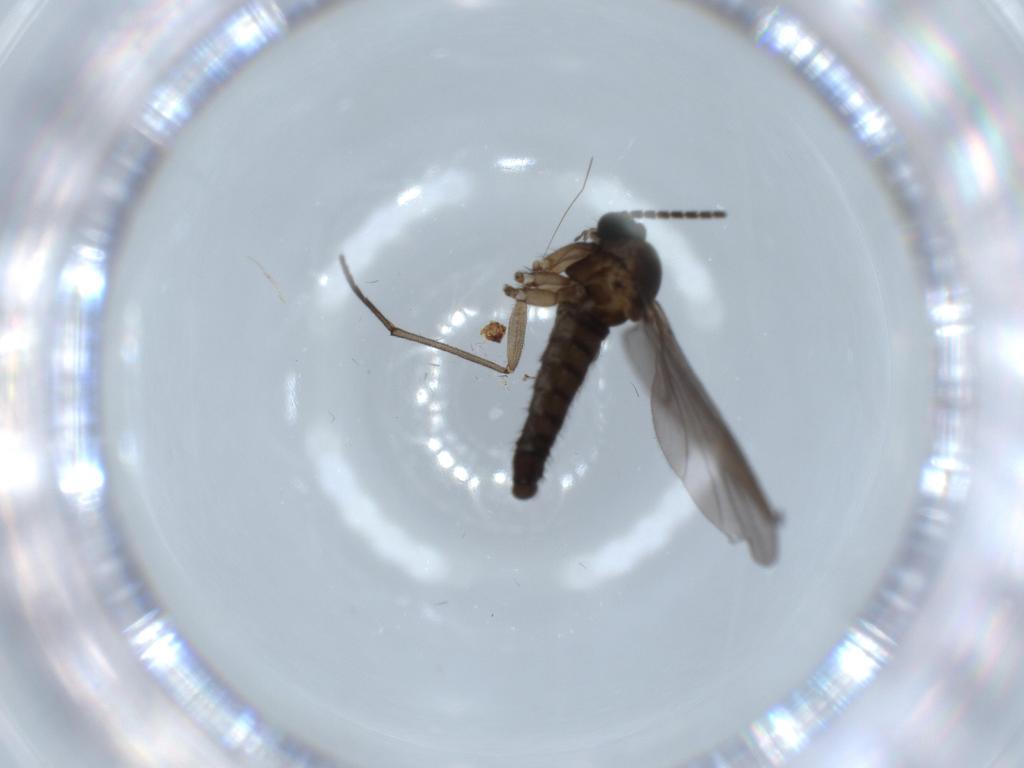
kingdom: Animalia
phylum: Arthropoda
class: Insecta
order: Diptera
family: Sciaridae
